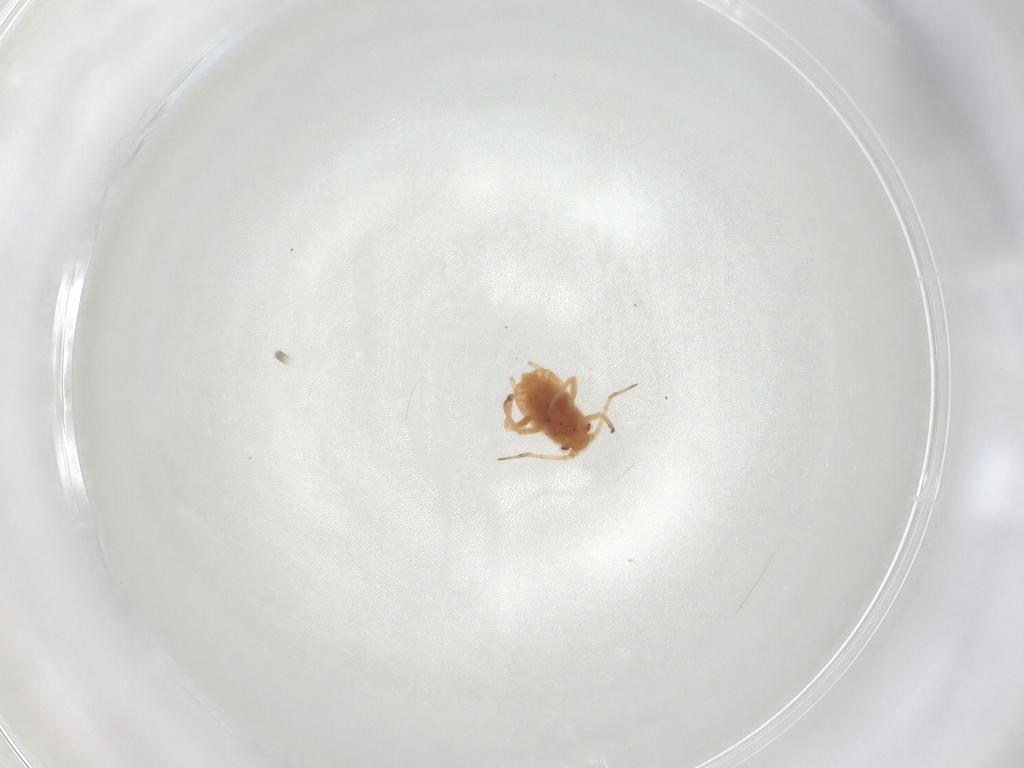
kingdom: Animalia
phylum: Arthropoda
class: Insecta
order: Hemiptera
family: Aphididae
